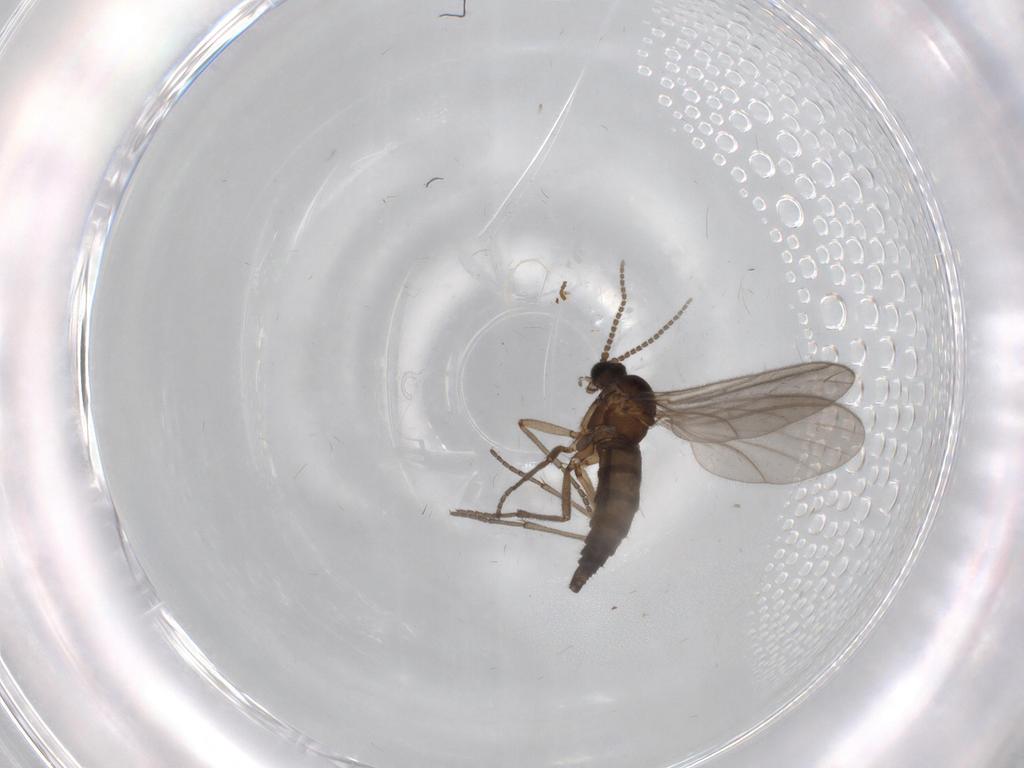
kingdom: Animalia
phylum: Arthropoda
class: Insecta
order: Diptera
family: Sciaridae
